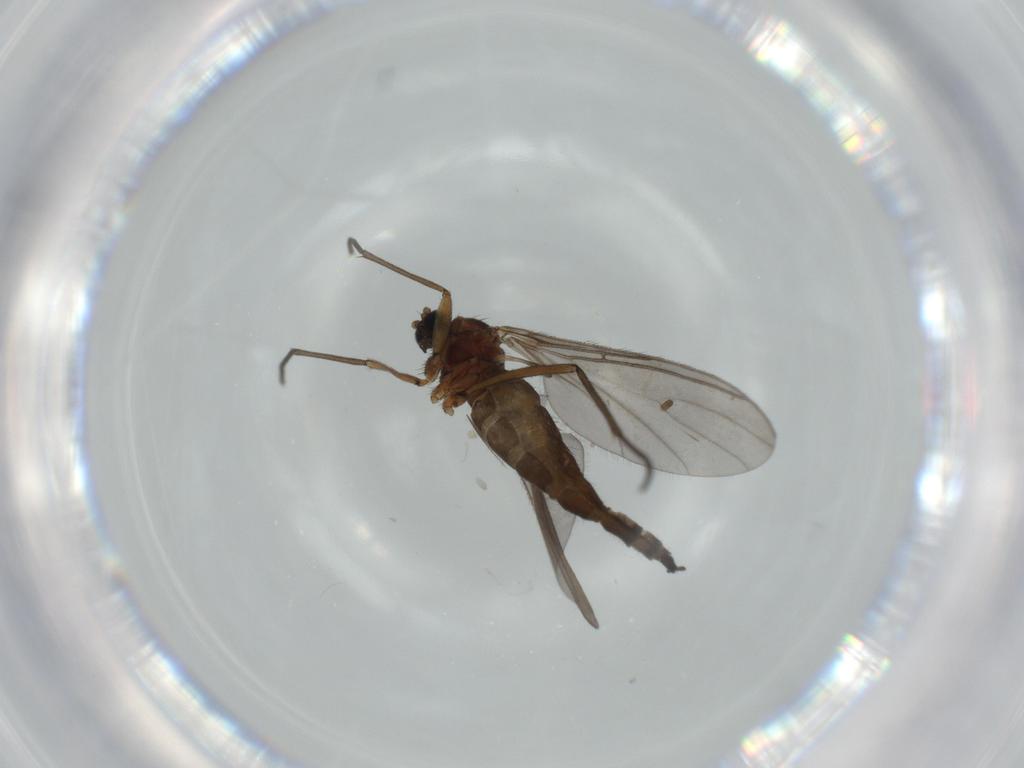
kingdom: Animalia
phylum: Arthropoda
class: Insecta
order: Diptera
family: Sciaridae
